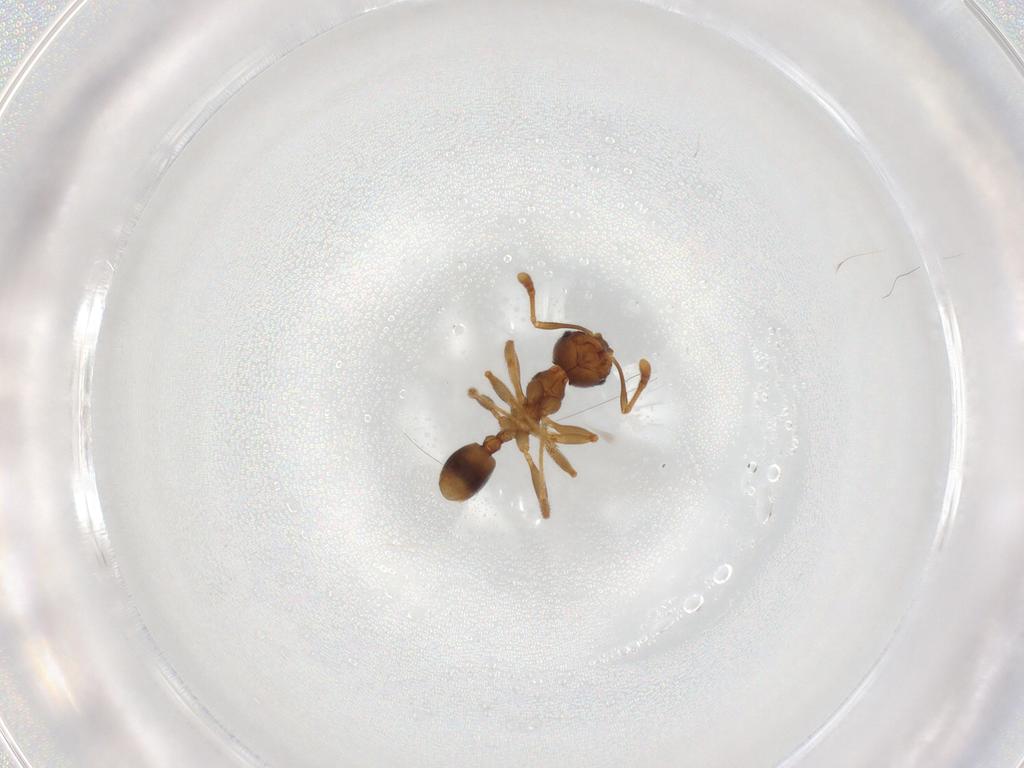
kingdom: Animalia
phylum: Arthropoda
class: Insecta
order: Hymenoptera
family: Formicidae
